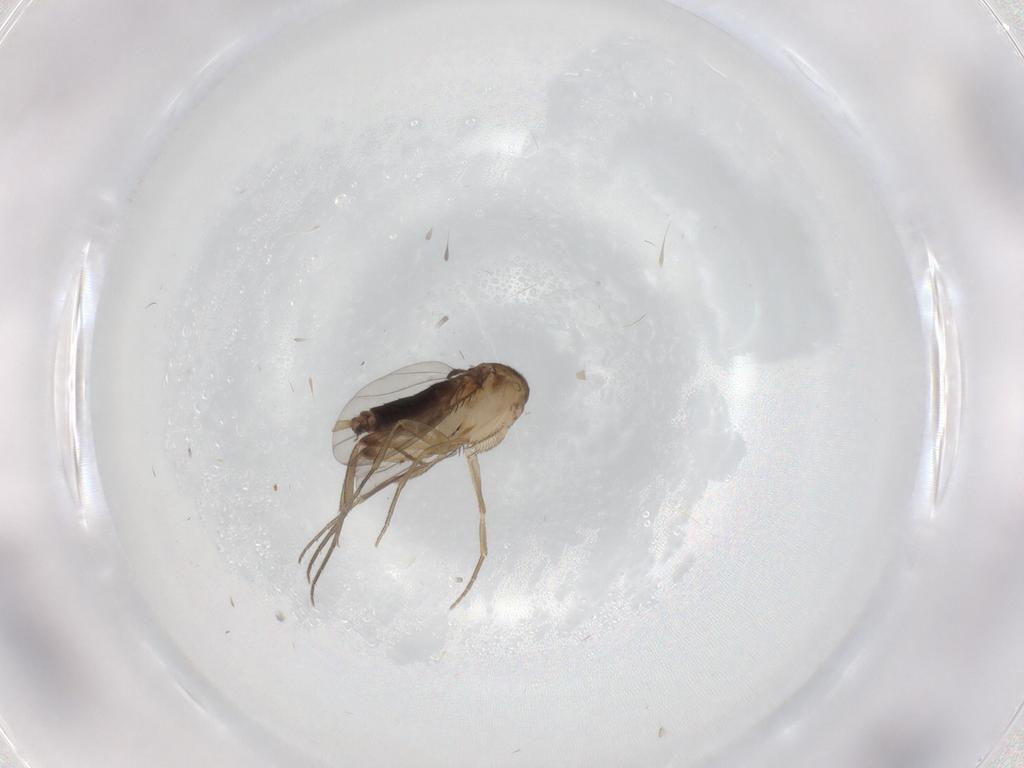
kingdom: Animalia
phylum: Arthropoda
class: Insecta
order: Diptera
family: Phoridae
